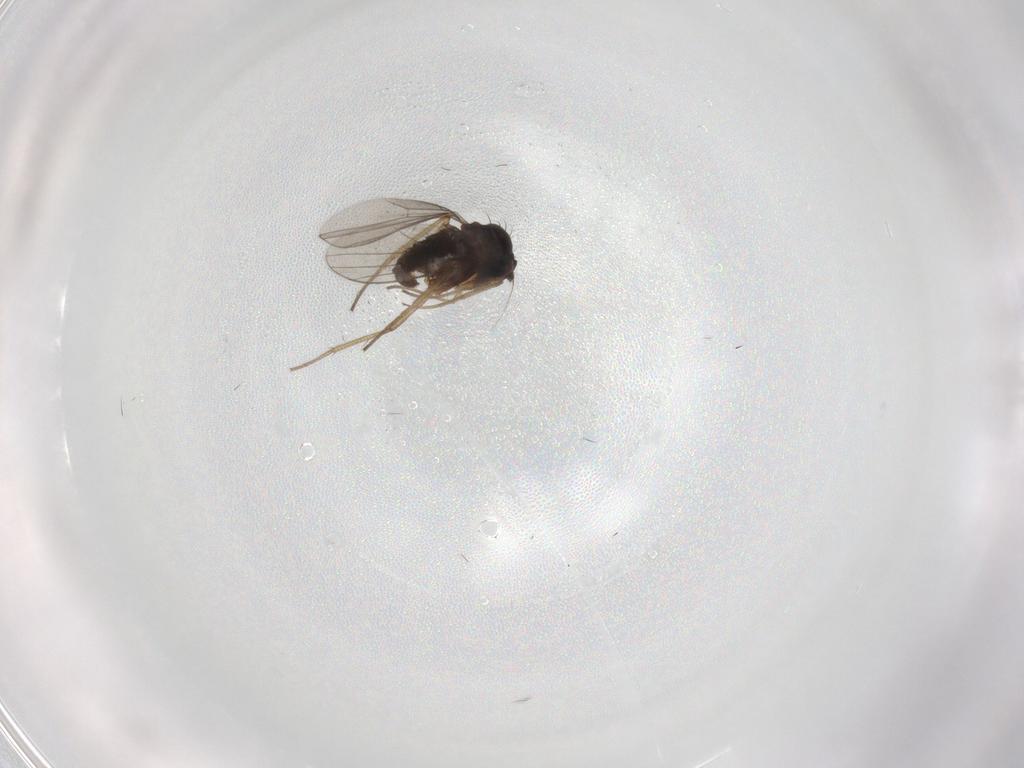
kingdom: Animalia
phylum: Arthropoda
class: Insecta
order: Diptera
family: Dolichopodidae
